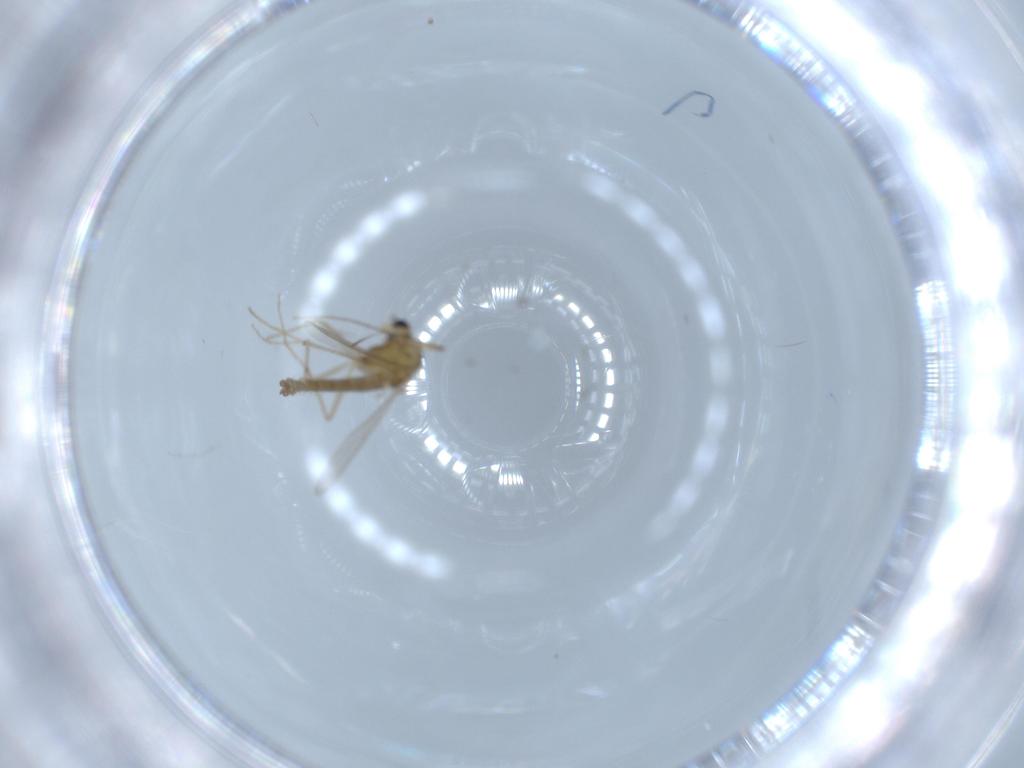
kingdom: Animalia
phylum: Arthropoda
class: Insecta
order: Diptera
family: Chironomidae
